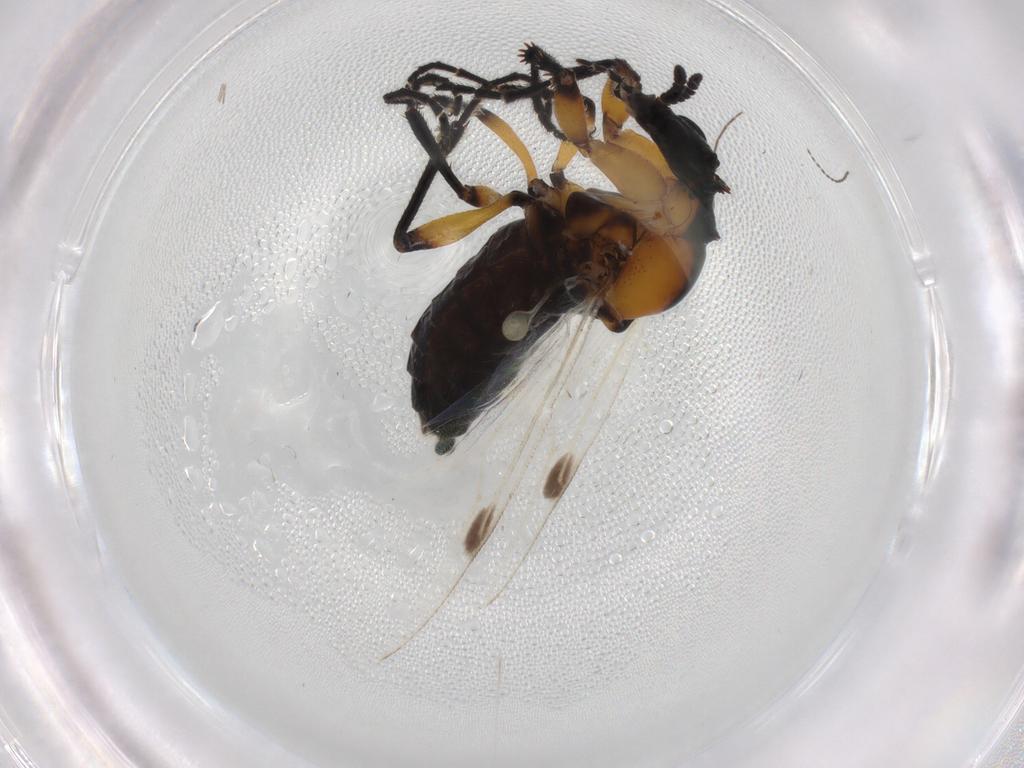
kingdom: Animalia
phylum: Arthropoda
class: Insecta
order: Diptera
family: Bibionidae
